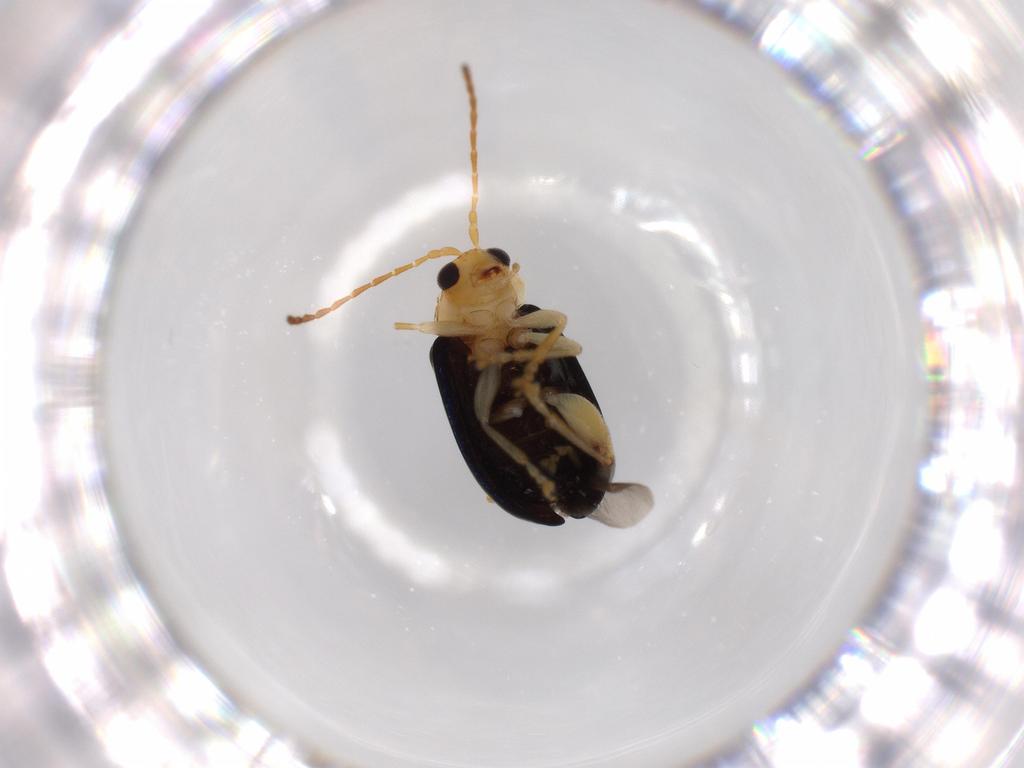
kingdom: Animalia
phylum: Arthropoda
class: Insecta
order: Coleoptera
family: Chrysomelidae
